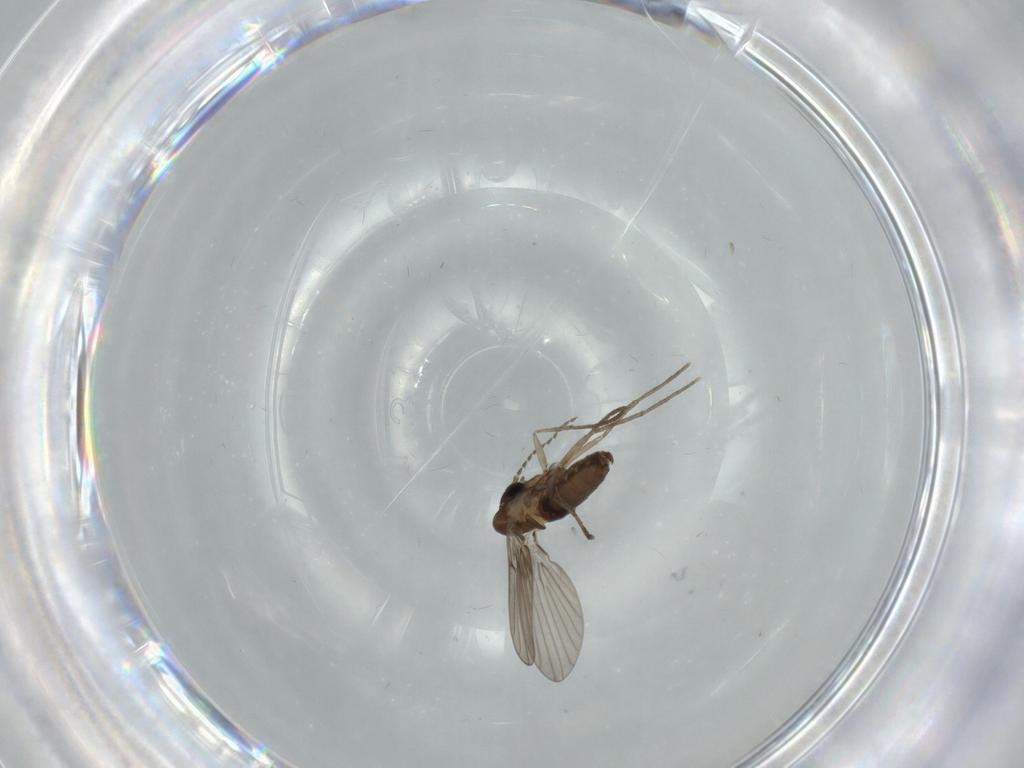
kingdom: Animalia
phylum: Arthropoda
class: Insecta
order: Diptera
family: Psychodidae
